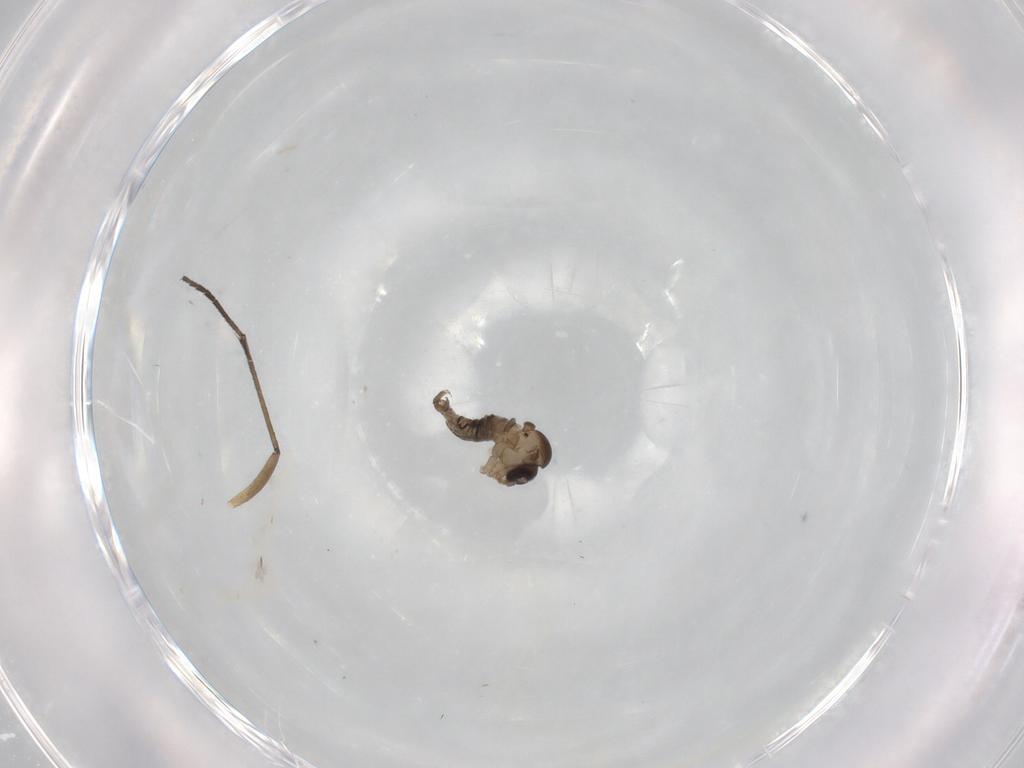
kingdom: Animalia
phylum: Arthropoda
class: Insecta
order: Diptera
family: Psychodidae
